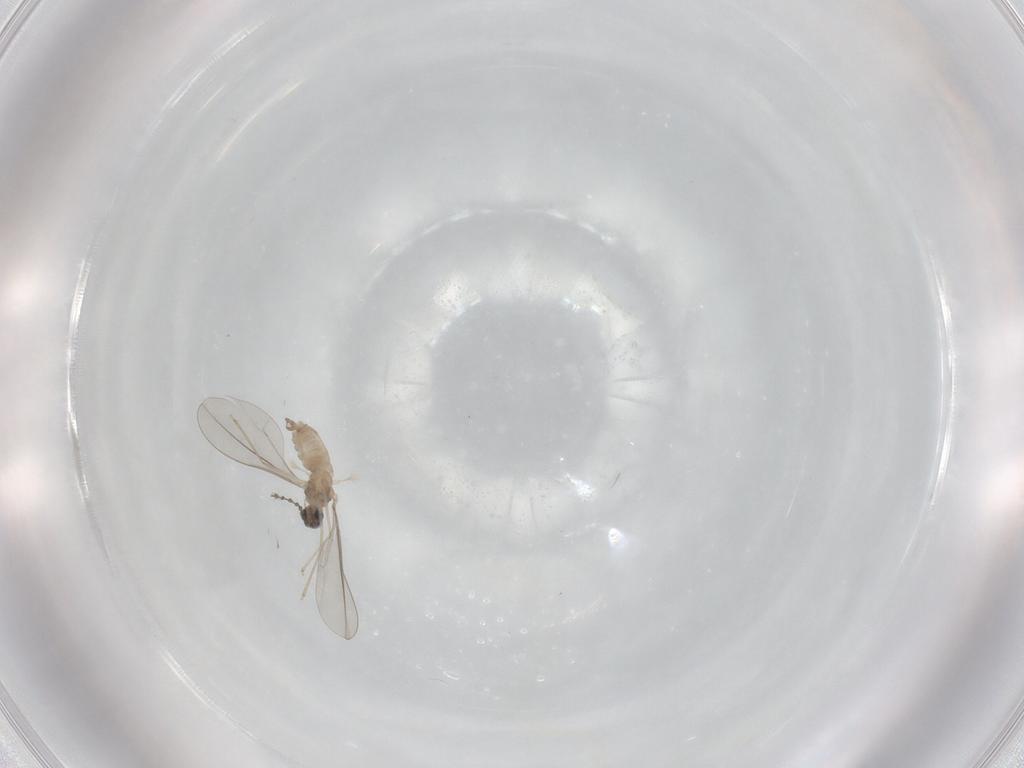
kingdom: Animalia
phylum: Arthropoda
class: Insecta
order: Diptera
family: Cecidomyiidae
